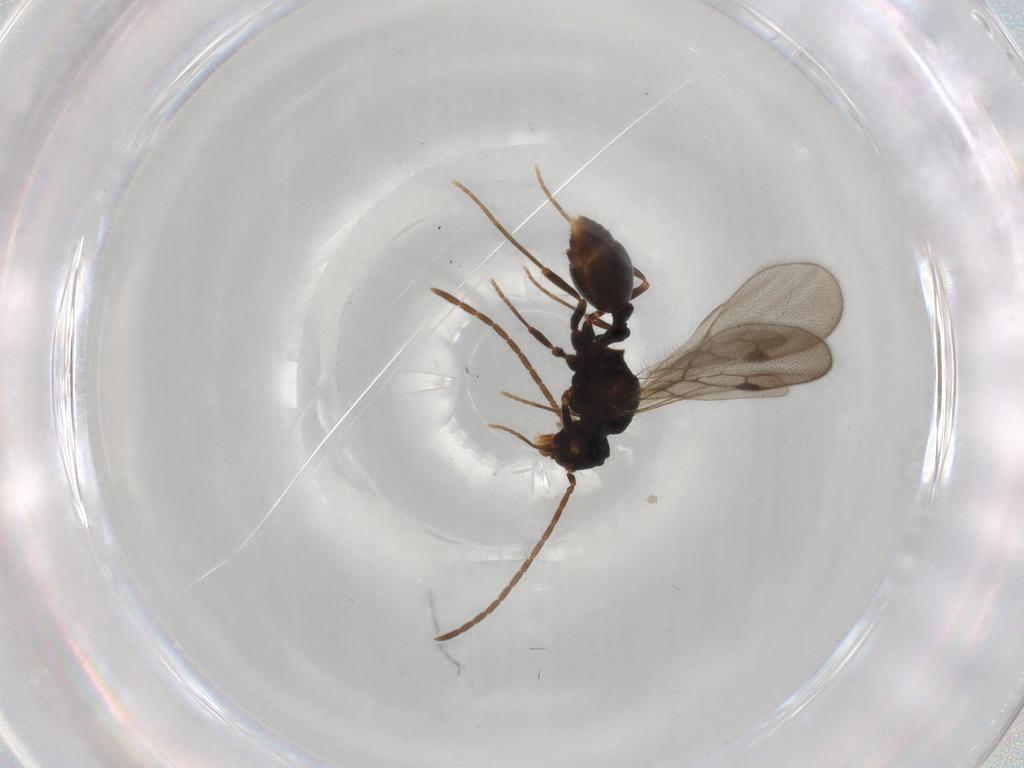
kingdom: Animalia
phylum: Arthropoda
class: Insecta
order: Hymenoptera
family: Formicidae
